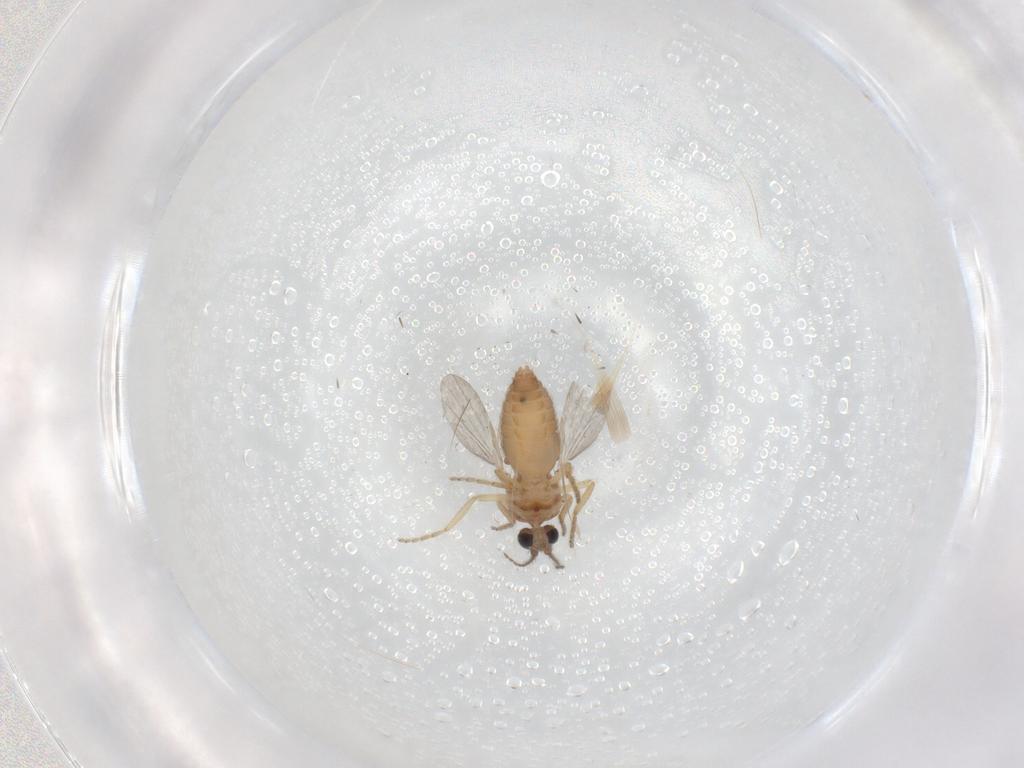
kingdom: Animalia
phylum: Arthropoda
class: Insecta
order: Diptera
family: Ceratopogonidae
